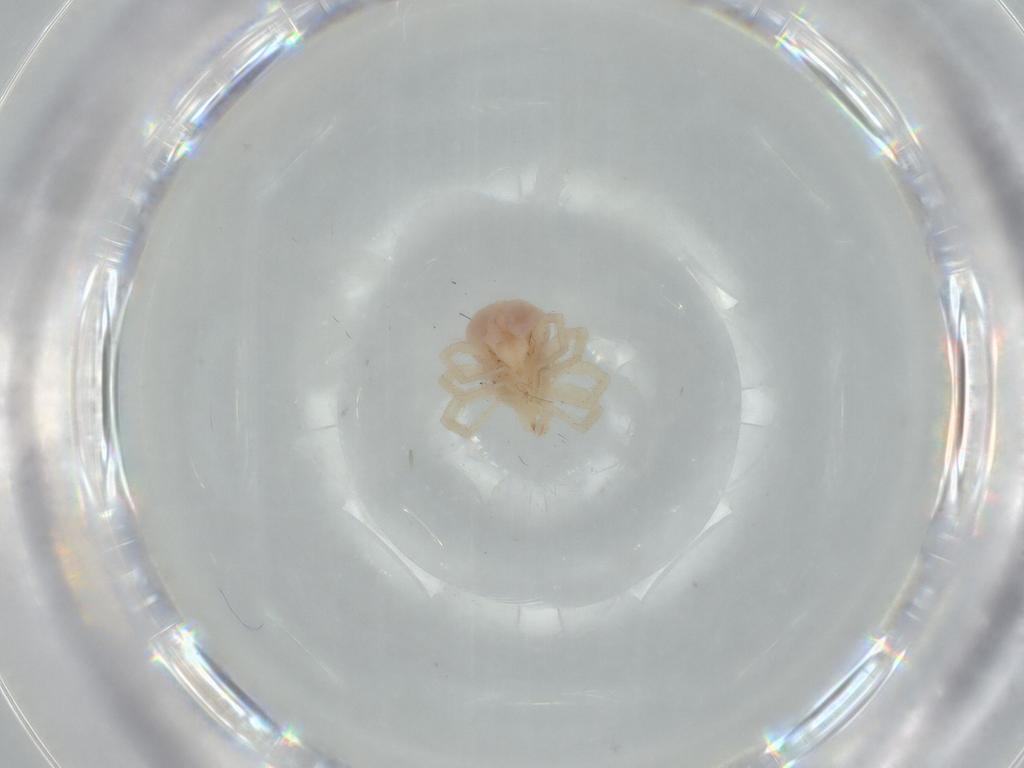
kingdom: Animalia
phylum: Arthropoda
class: Arachnida
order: Trombidiformes
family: Anystidae
